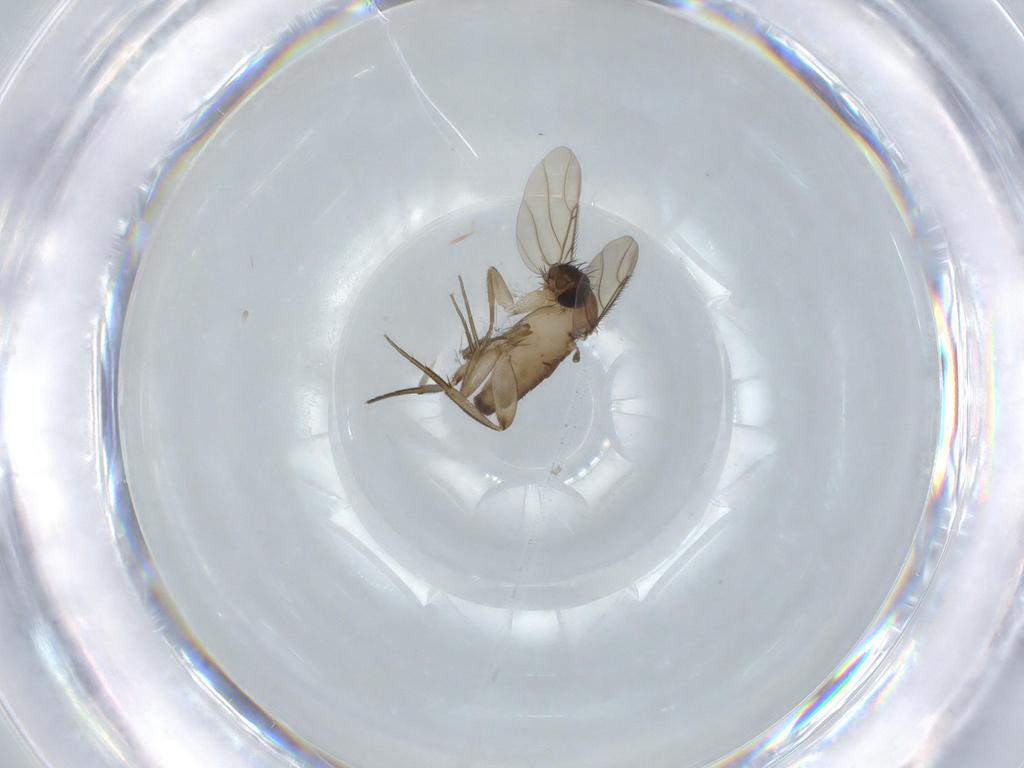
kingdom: Animalia
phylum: Arthropoda
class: Insecta
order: Diptera
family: Phoridae
